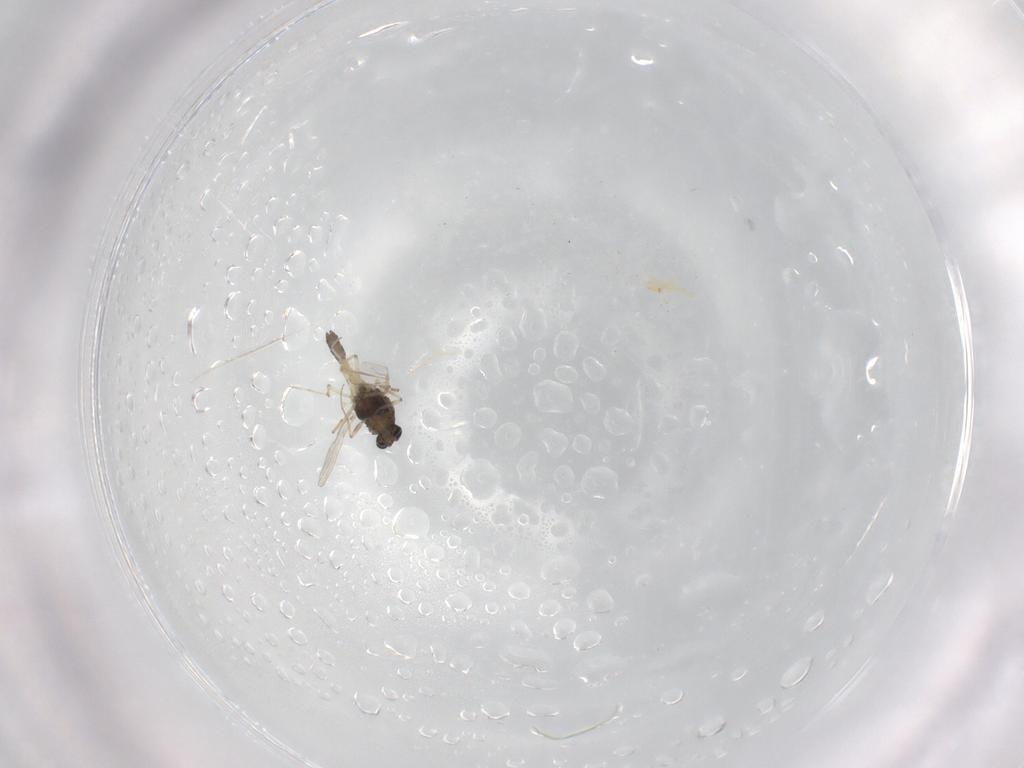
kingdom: Animalia
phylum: Arthropoda
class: Insecta
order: Diptera
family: Chironomidae
